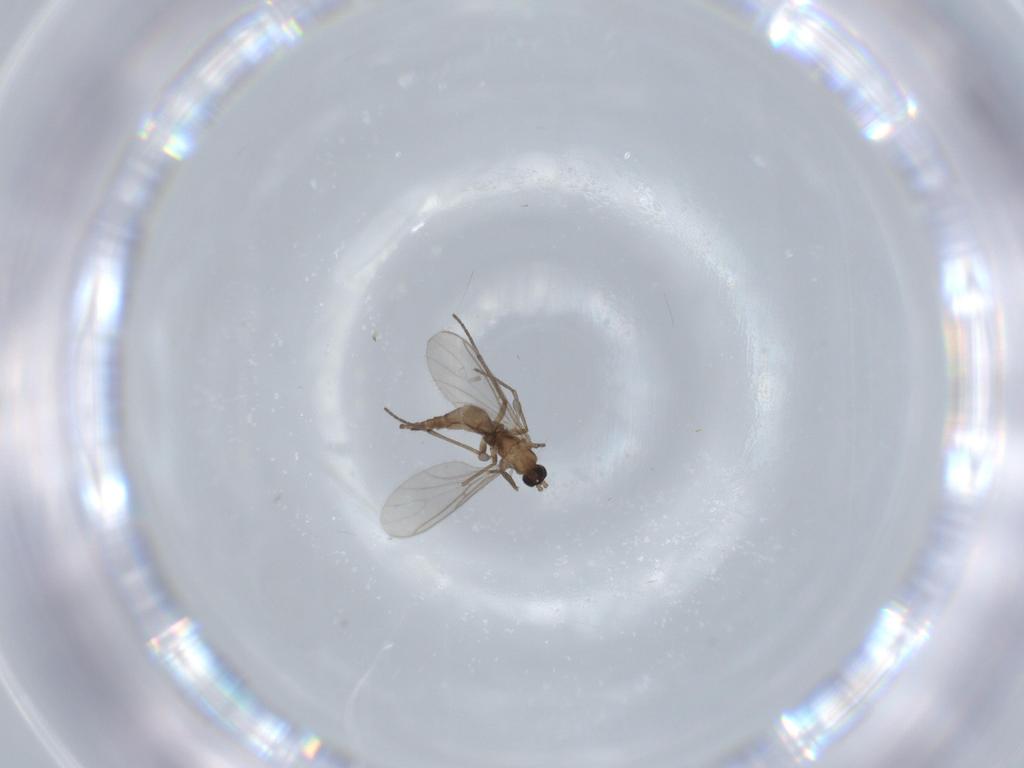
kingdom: Animalia
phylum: Arthropoda
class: Insecta
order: Diptera
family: Sciaridae
